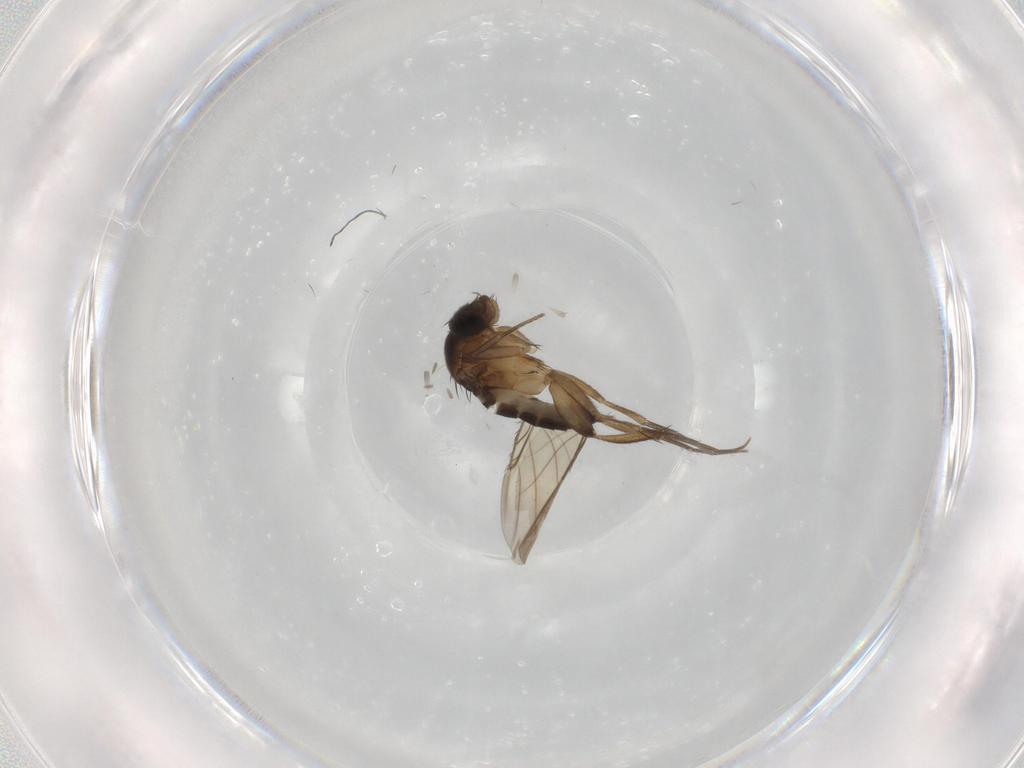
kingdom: Animalia
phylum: Arthropoda
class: Insecta
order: Diptera
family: Phoridae
